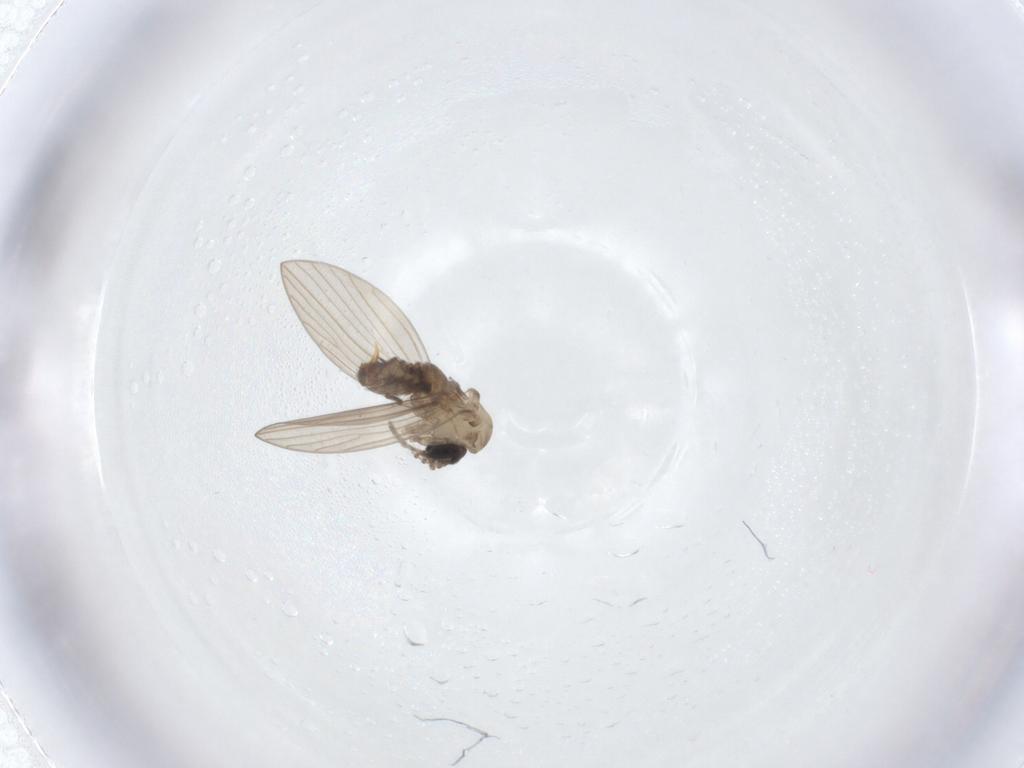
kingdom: Animalia
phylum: Arthropoda
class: Insecta
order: Diptera
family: Psychodidae
